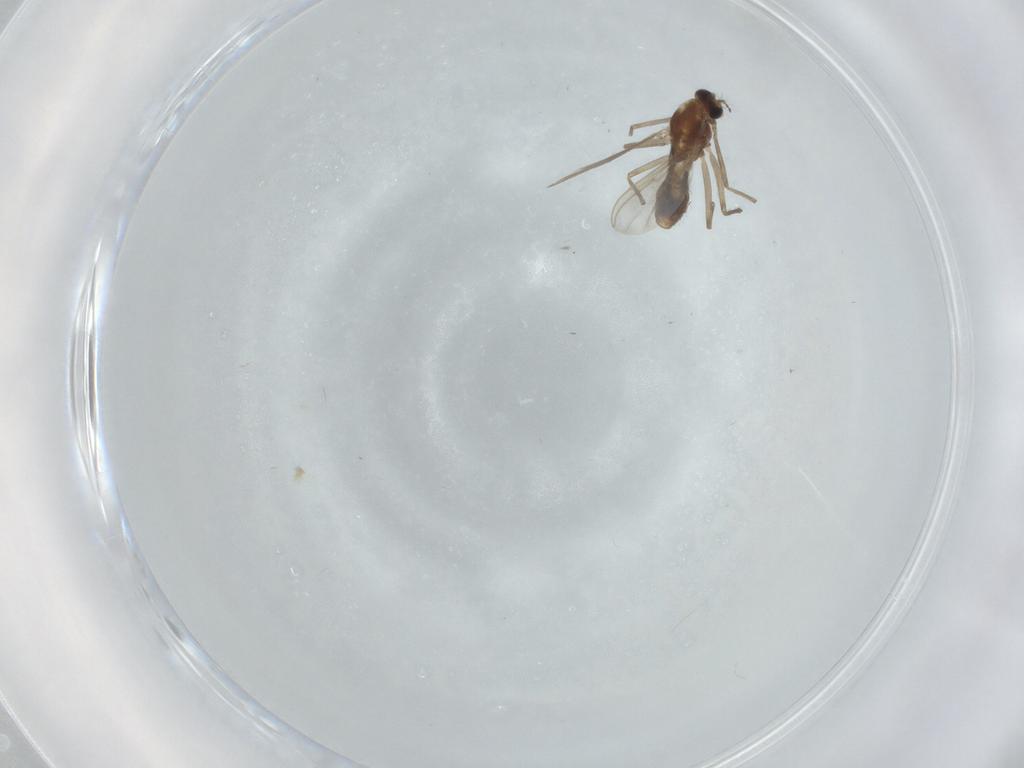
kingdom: Animalia
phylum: Arthropoda
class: Insecta
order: Diptera
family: Chironomidae
